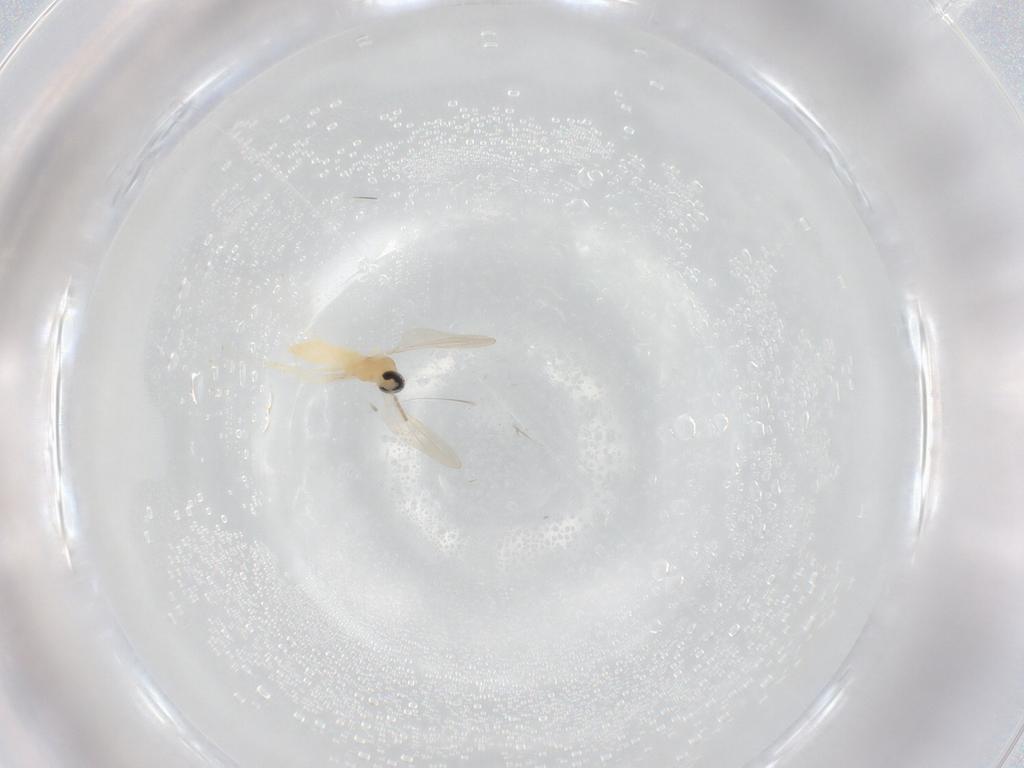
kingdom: Animalia
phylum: Arthropoda
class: Insecta
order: Diptera
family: Cecidomyiidae
